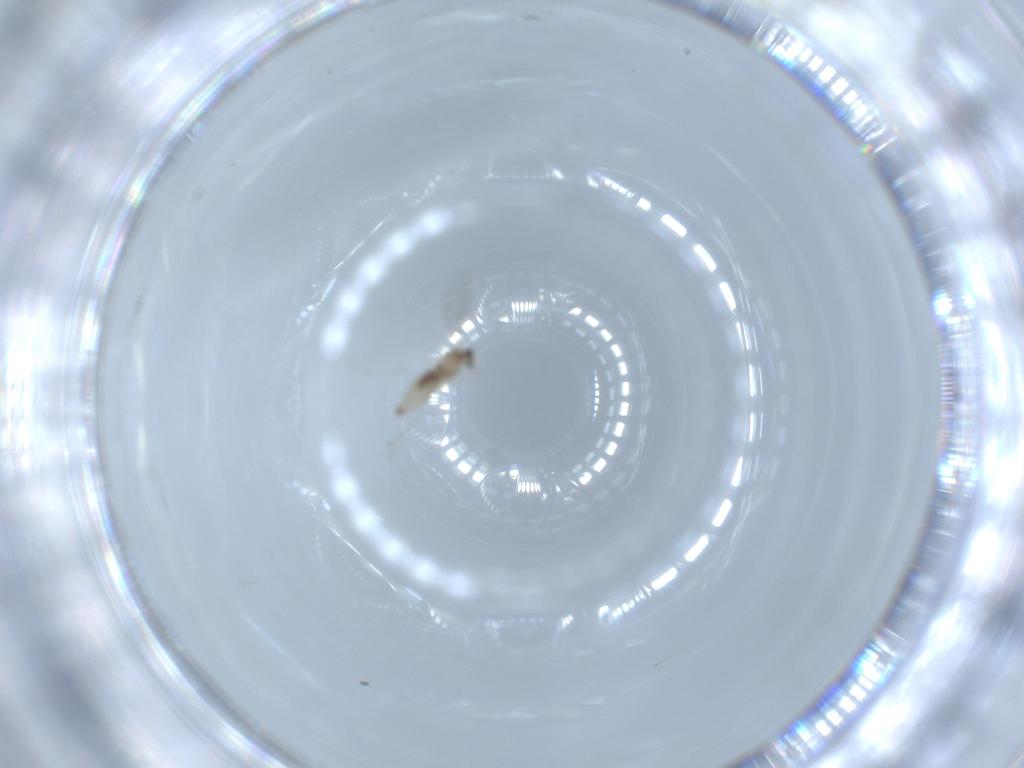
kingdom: Animalia
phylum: Arthropoda
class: Insecta
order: Diptera
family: Cecidomyiidae
